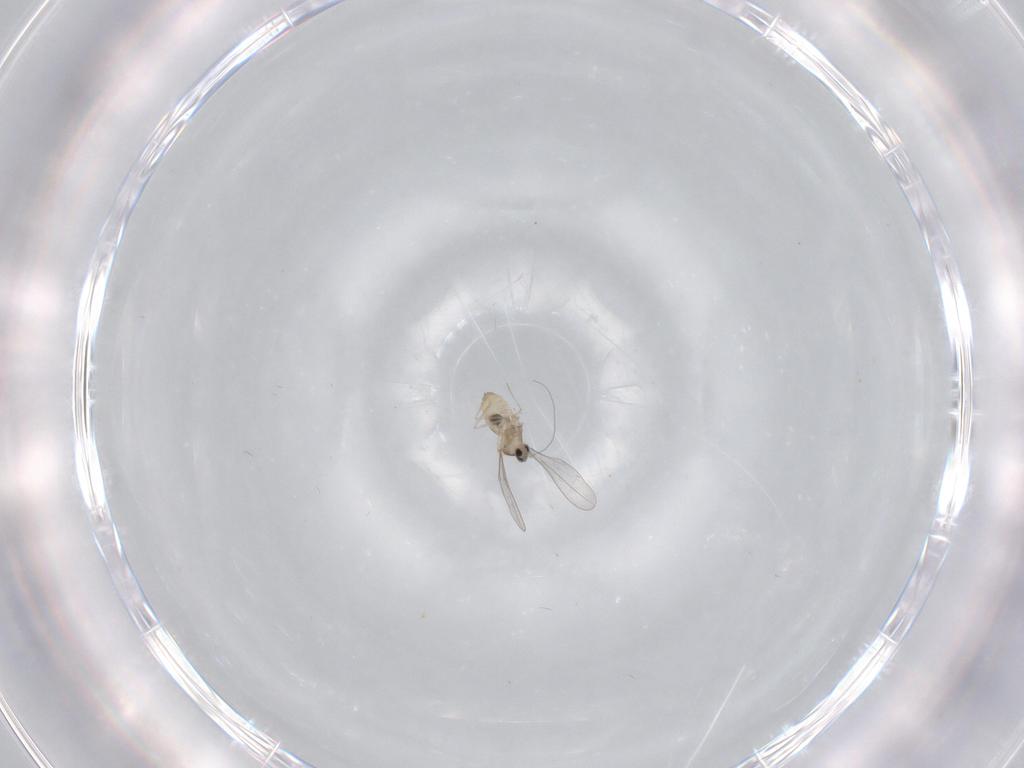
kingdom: Animalia
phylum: Arthropoda
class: Insecta
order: Diptera
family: Cecidomyiidae
